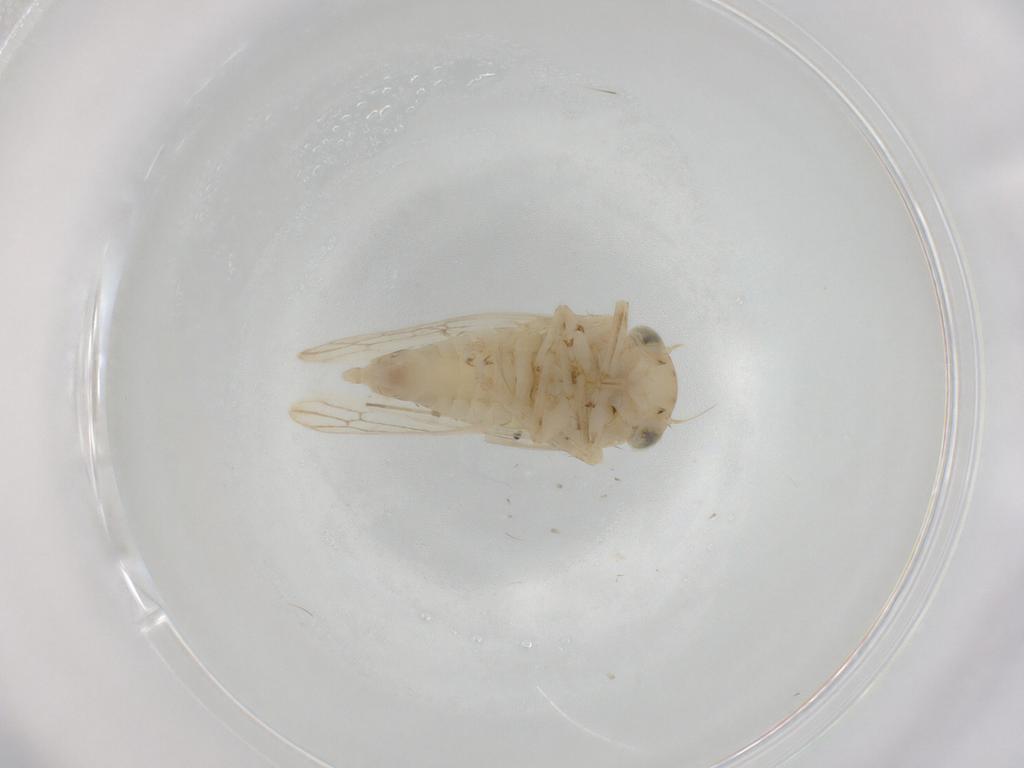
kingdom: Animalia
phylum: Arthropoda
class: Insecta
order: Hemiptera
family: Cicadellidae
